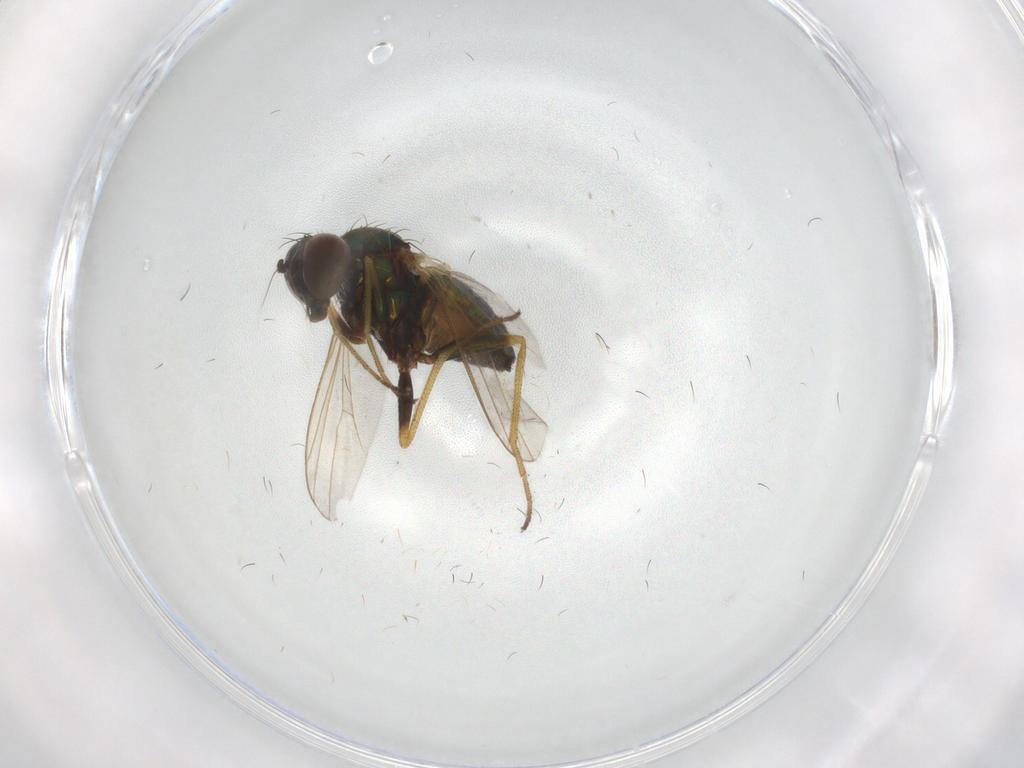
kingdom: Animalia
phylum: Arthropoda
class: Insecta
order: Diptera
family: Dolichopodidae
